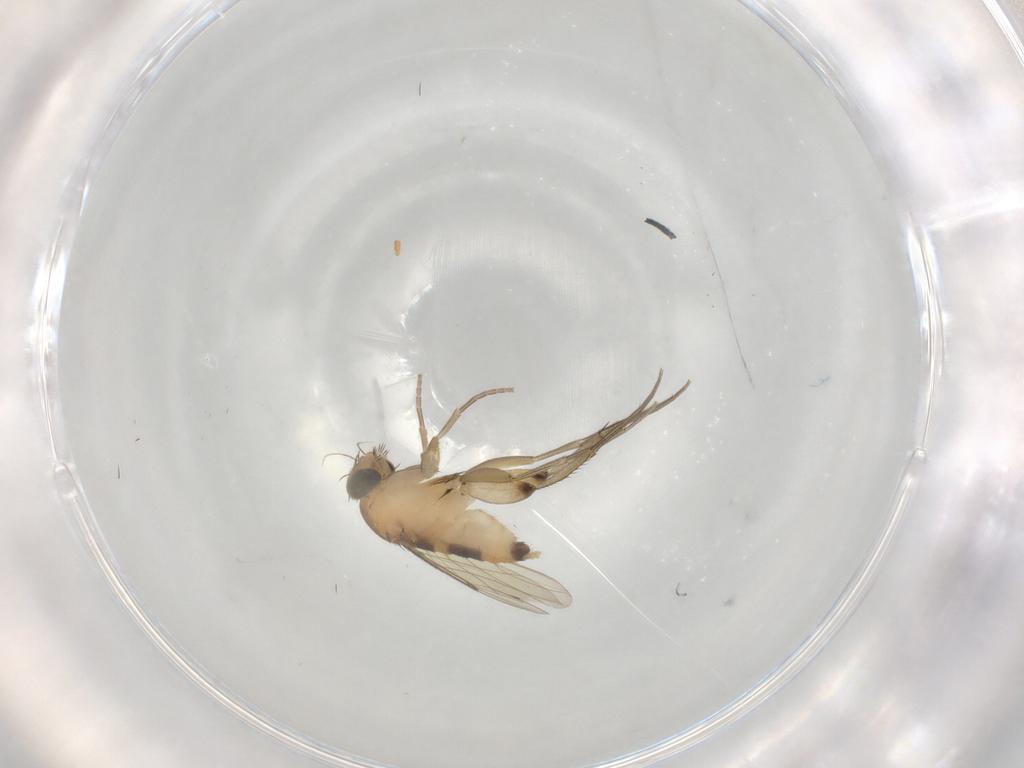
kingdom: Animalia
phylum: Arthropoda
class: Insecta
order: Diptera
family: Phoridae
